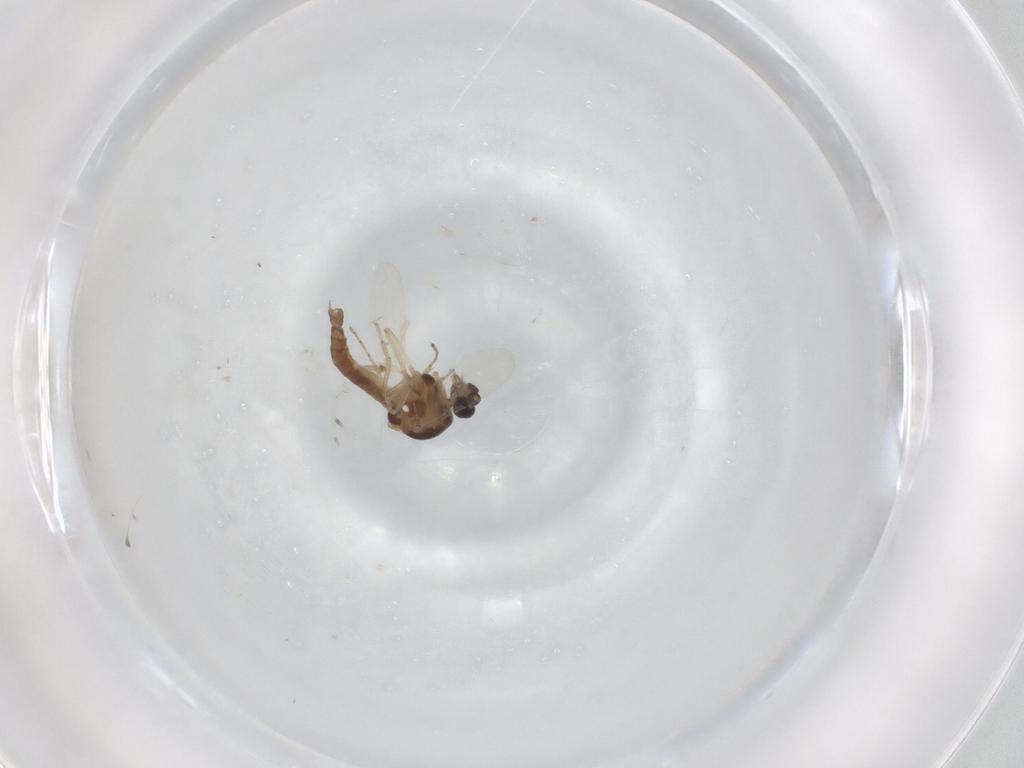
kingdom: Animalia
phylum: Arthropoda
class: Insecta
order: Diptera
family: Ceratopogonidae
